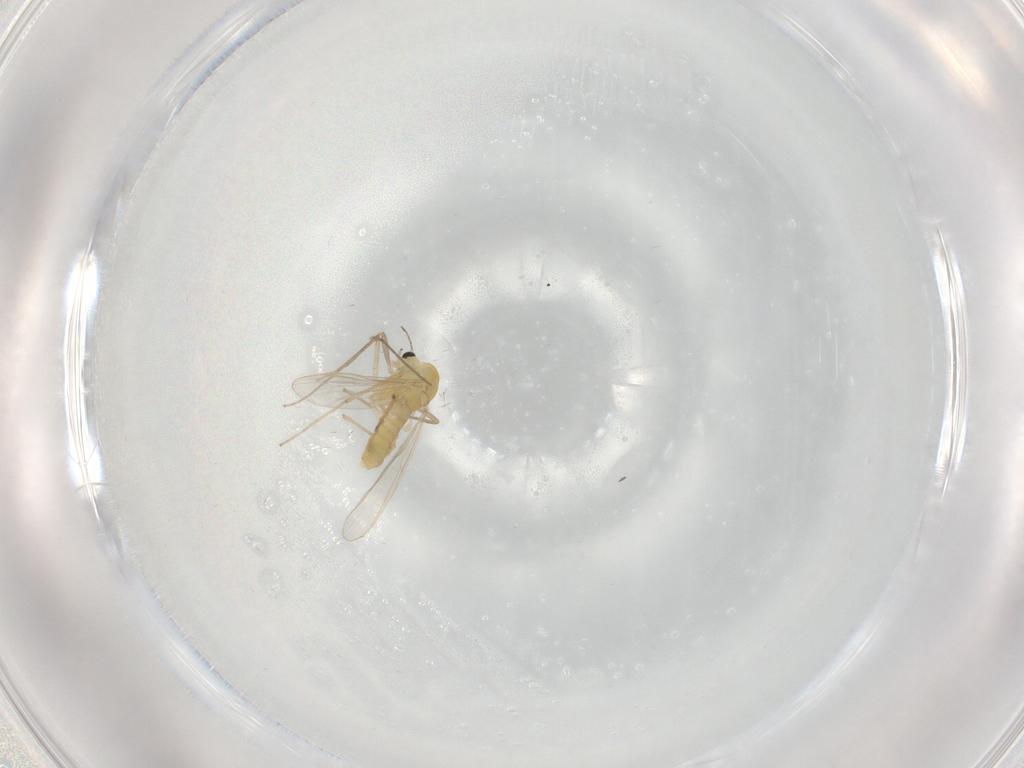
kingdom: Animalia
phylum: Arthropoda
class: Insecta
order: Diptera
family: Chironomidae
